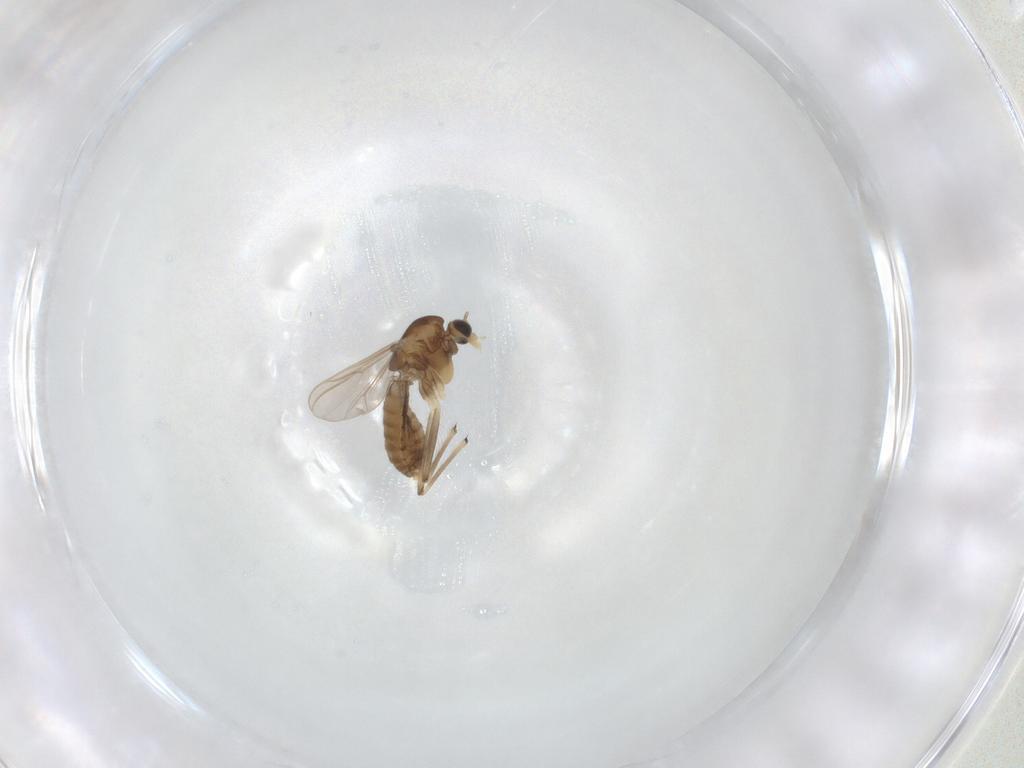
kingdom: Animalia
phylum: Arthropoda
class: Insecta
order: Diptera
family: Chironomidae
